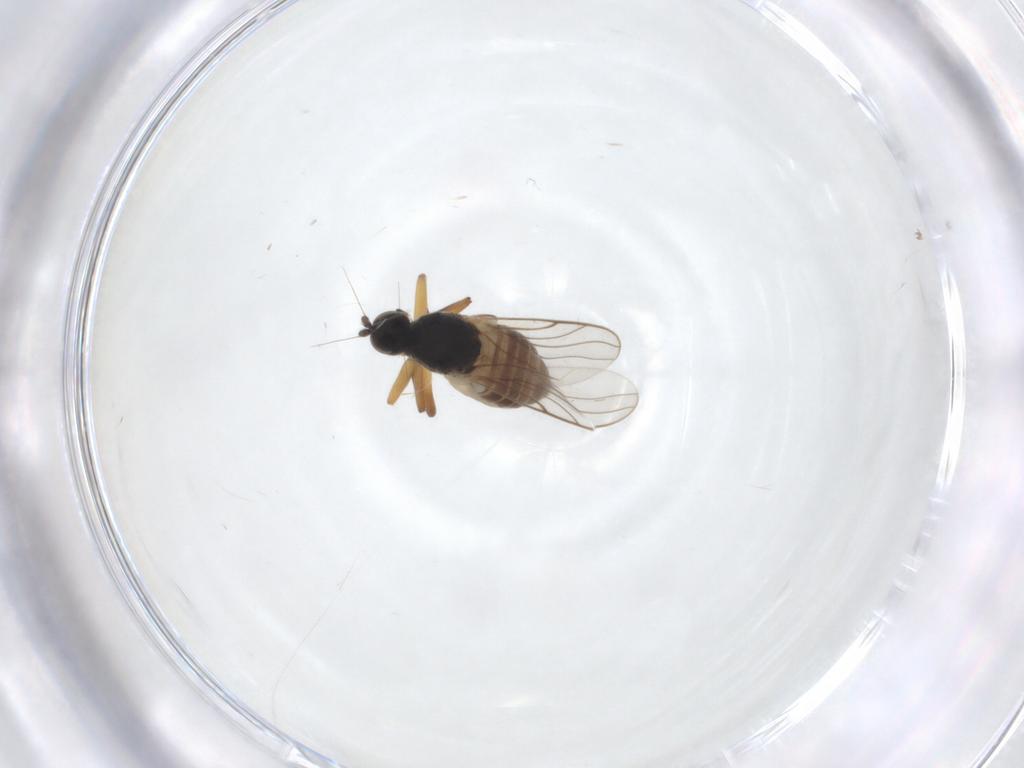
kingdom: Animalia
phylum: Arthropoda
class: Insecta
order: Diptera
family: Hybotidae
